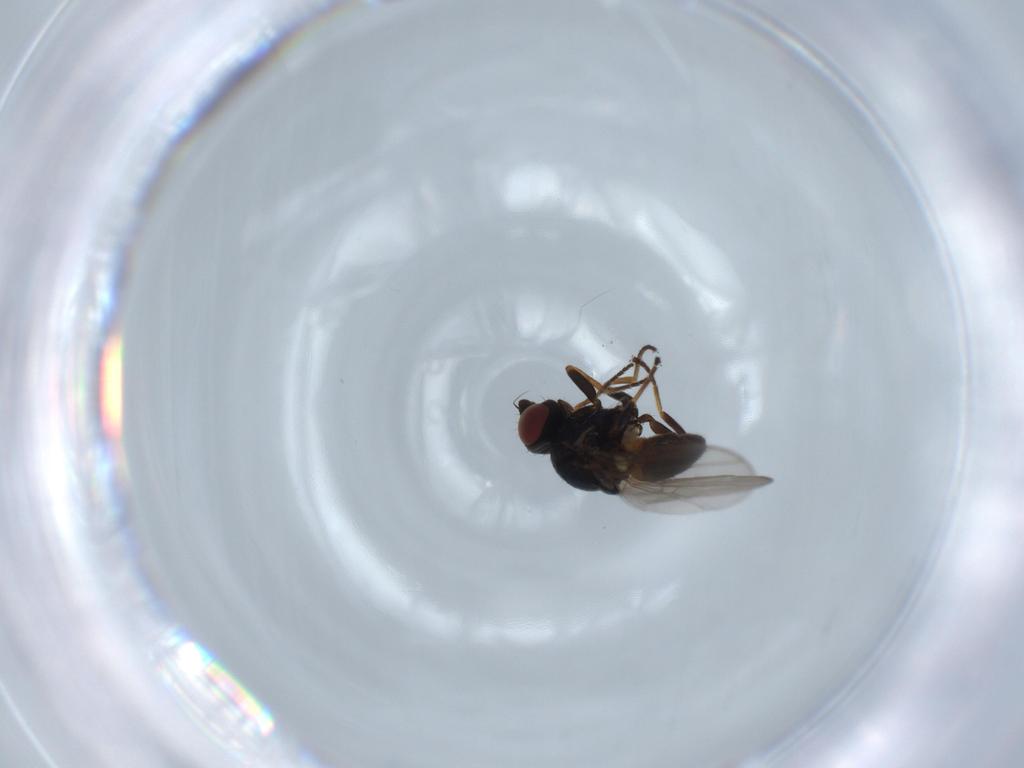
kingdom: Animalia
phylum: Arthropoda
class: Insecta
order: Diptera
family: Chloropidae
